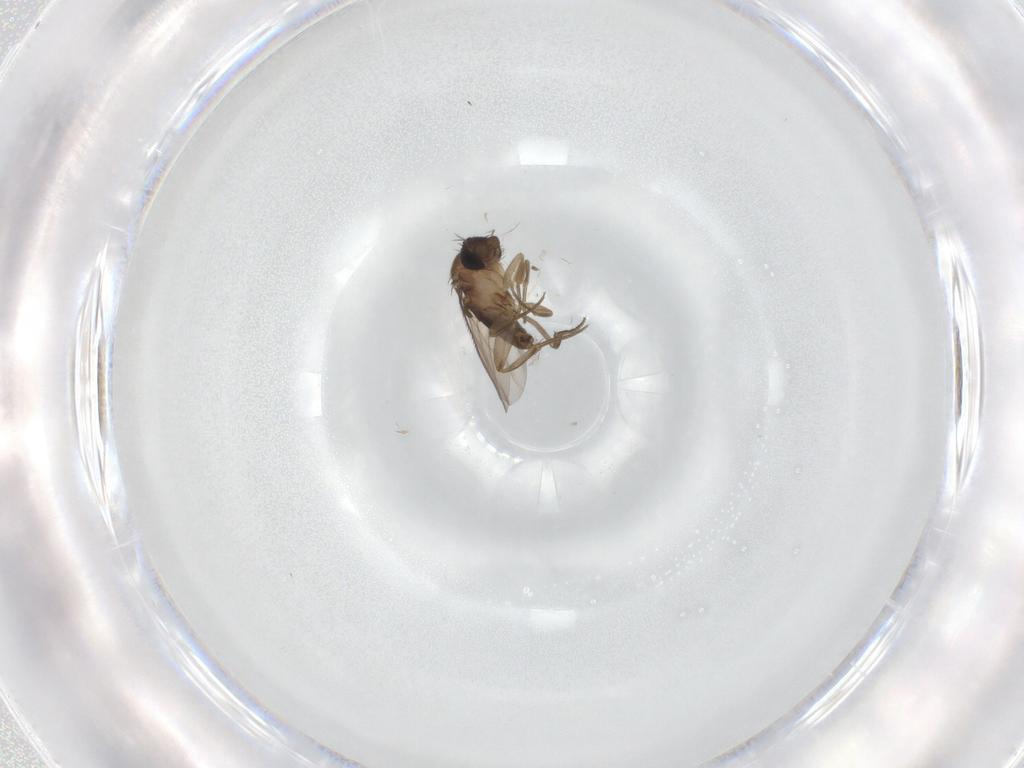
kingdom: Animalia
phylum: Arthropoda
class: Insecta
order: Diptera
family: Phoridae
